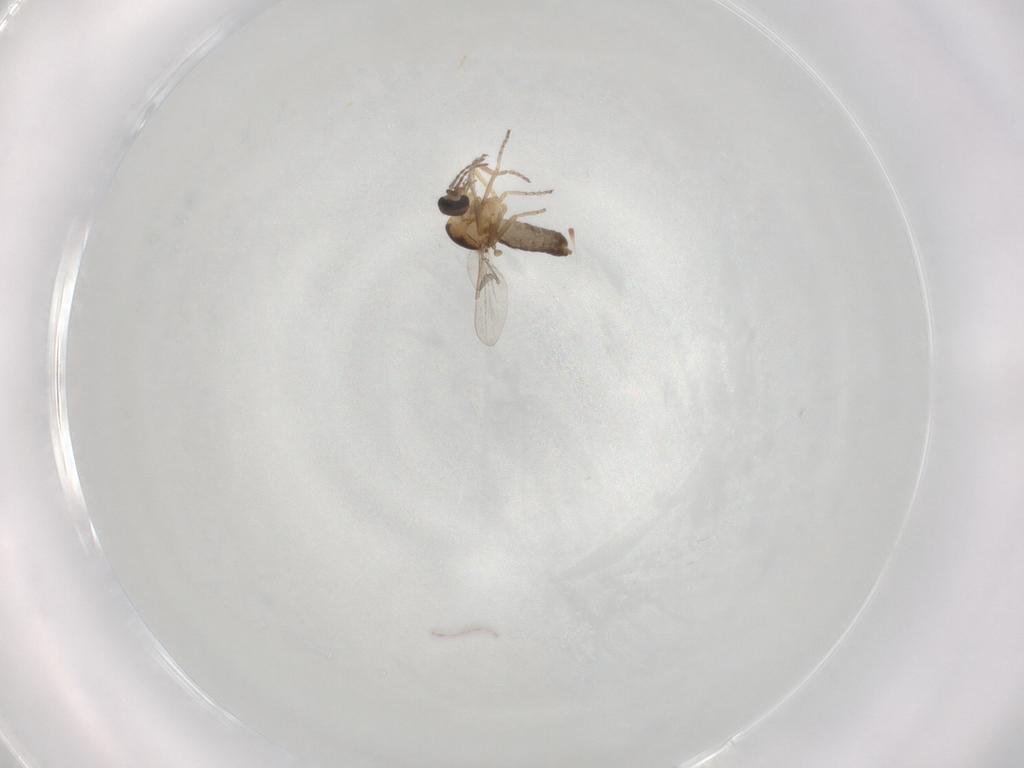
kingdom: Animalia
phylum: Arthropoda
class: Insecta
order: Diptera
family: Ceratopogonidae
